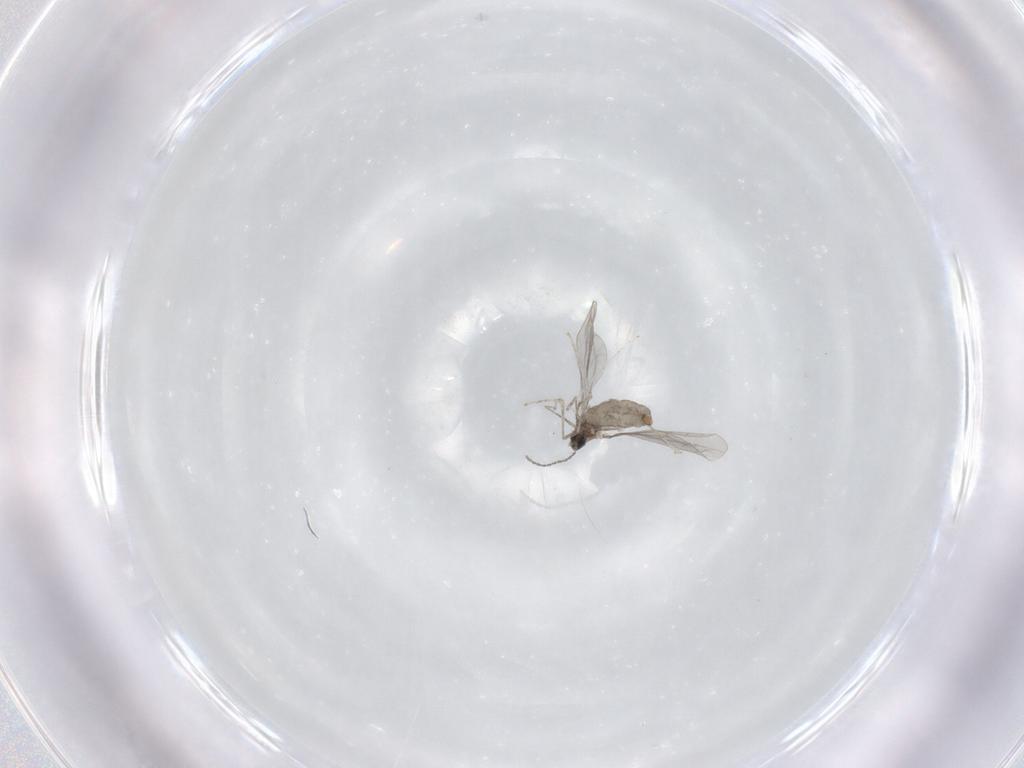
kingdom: Animalia
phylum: Arthropoda
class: Insecta
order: Diptera
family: Cecidomyiidae
